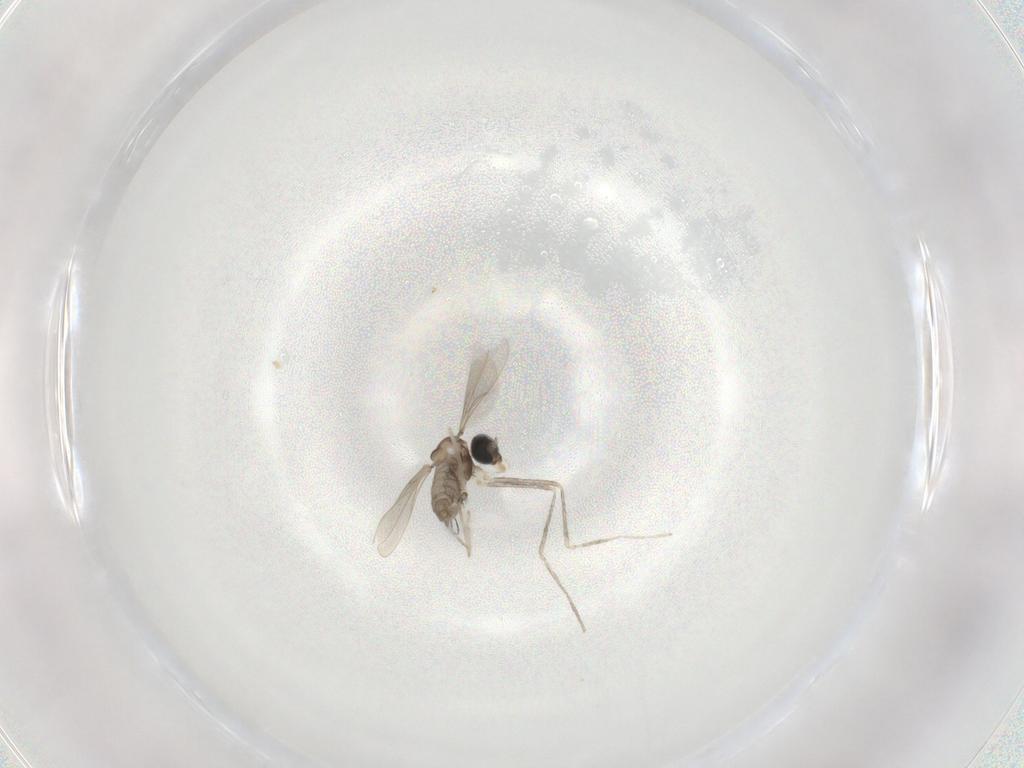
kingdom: Animalia
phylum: Arthropoda
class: Insecta
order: Diptera
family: Cecidomyiidae
